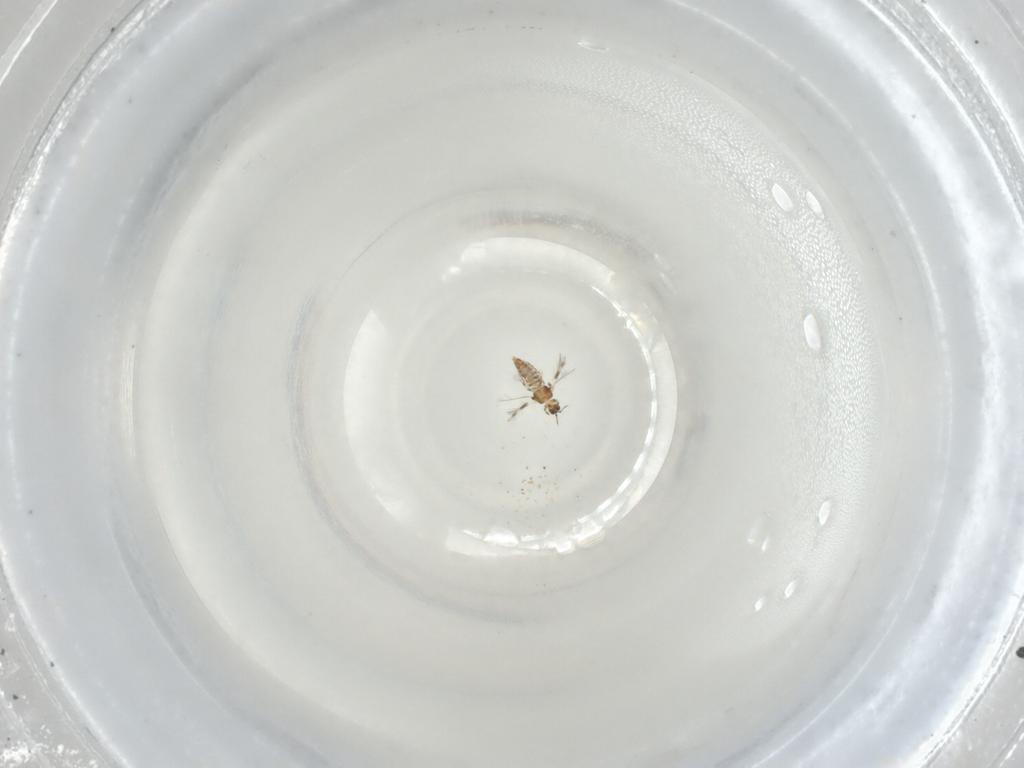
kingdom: Animalia
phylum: Arthropoda
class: Insecta
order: Thysanoptera
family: Thripidae
